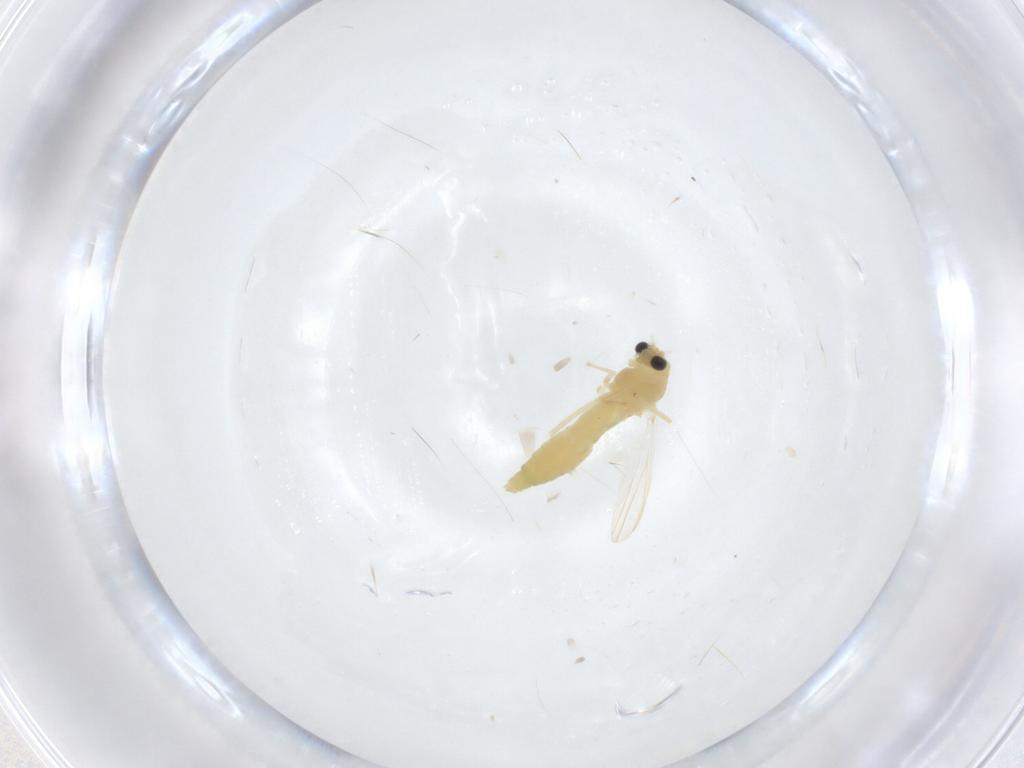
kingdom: Animalia
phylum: Arthropoda
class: Insecta
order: Diptera
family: Chironomidae
